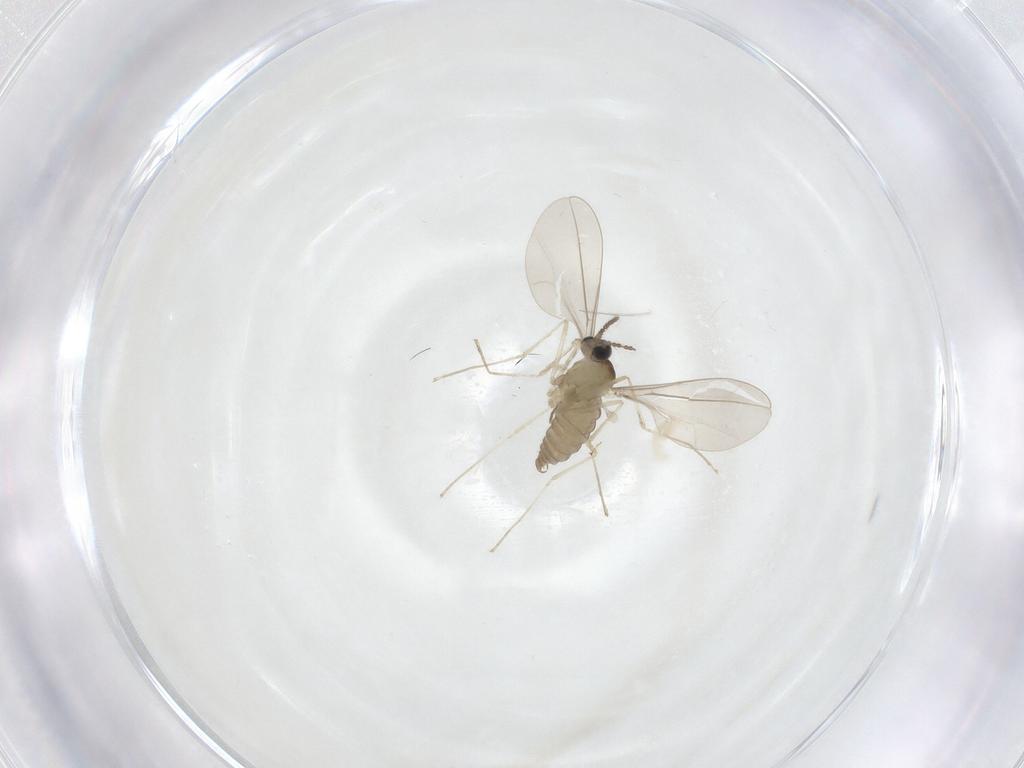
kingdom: Animalia
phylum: Arthropoda
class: Insecta
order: Diptera
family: Cecidomyiidae
